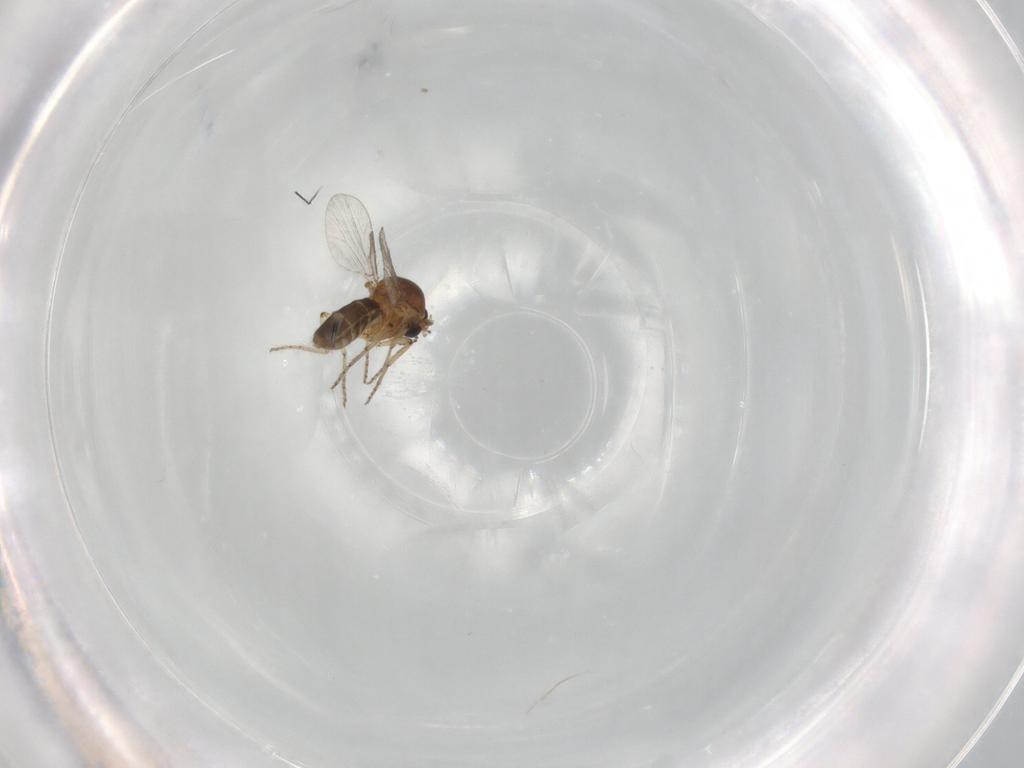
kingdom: Animalia
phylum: Arthropoda
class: Insecta
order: Diptera
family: Ceratopogonidae
